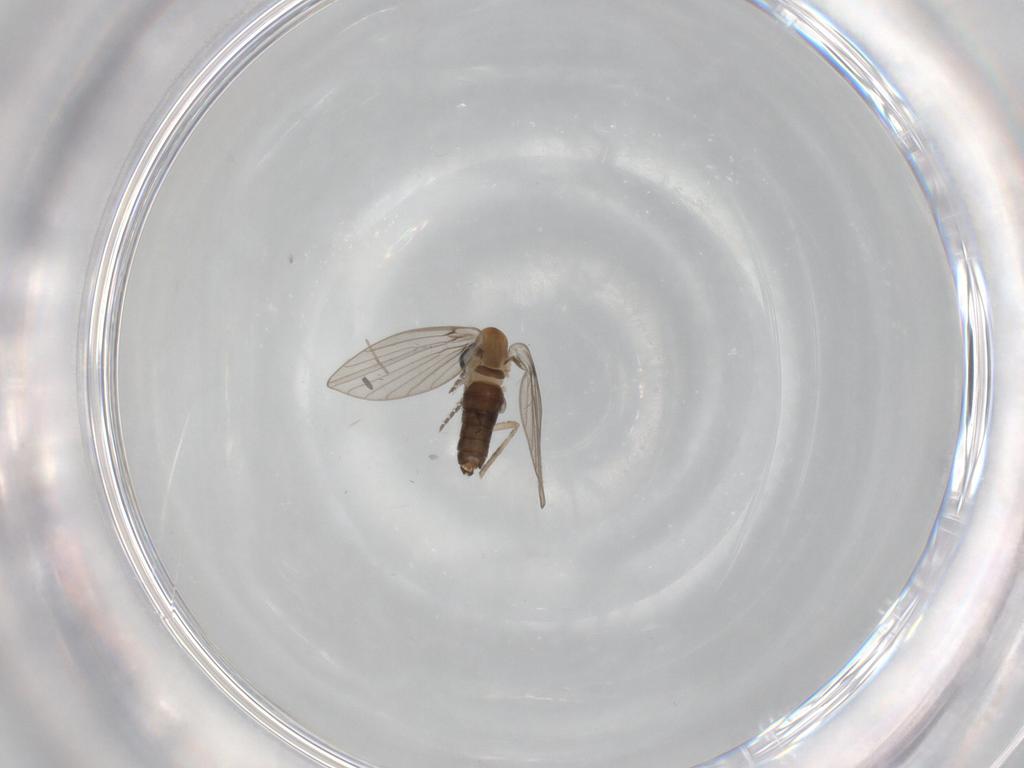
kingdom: Animalia
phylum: Arthropoda
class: Insecta
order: Diptera
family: Psychodidae
